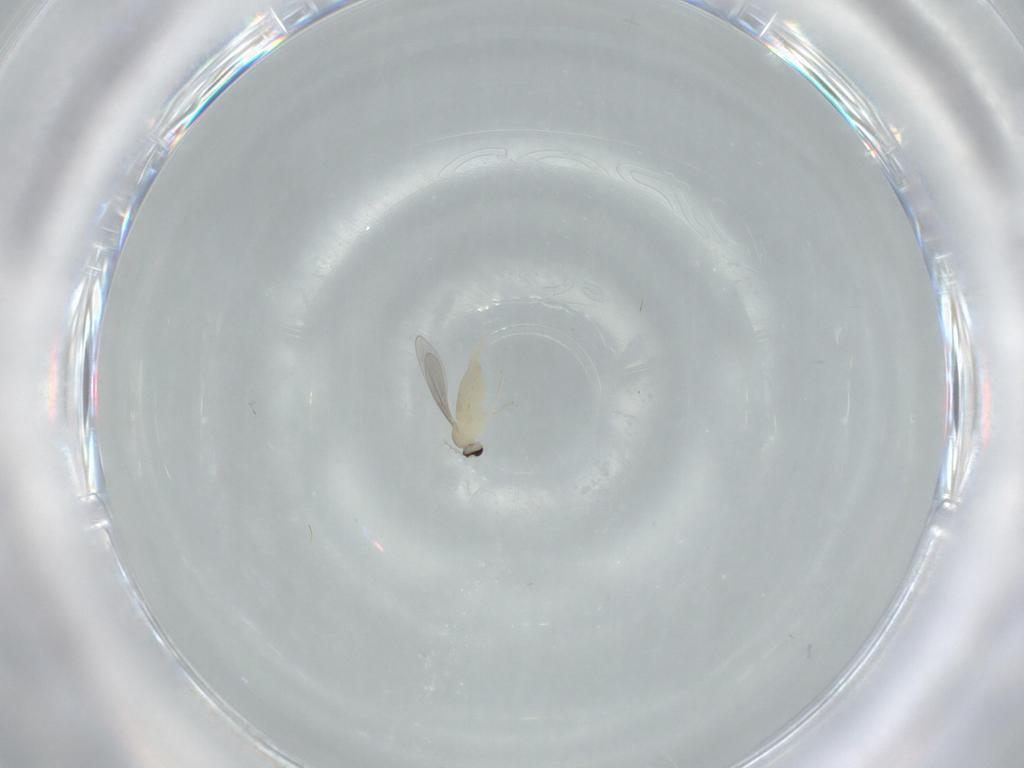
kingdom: Animalia
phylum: Arthropoda
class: Insecta
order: Diptera
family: Cecidomyiidae
